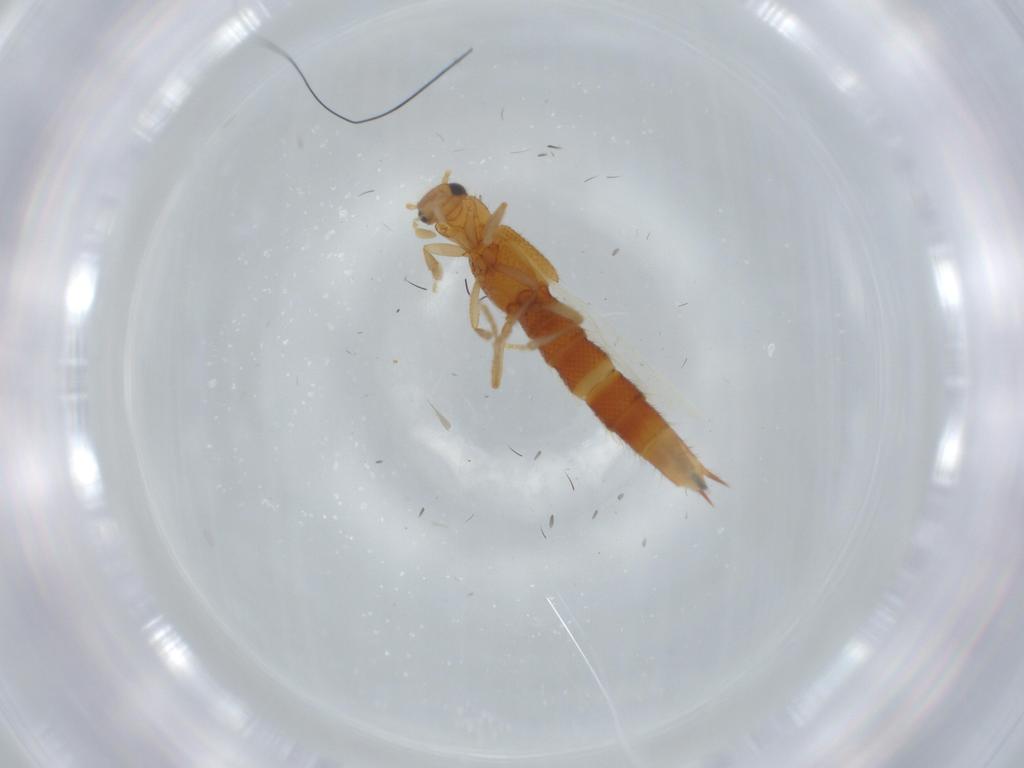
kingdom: Animalia
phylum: Arthropoda
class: Insecta
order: Coleoptera
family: Staphylinidae
